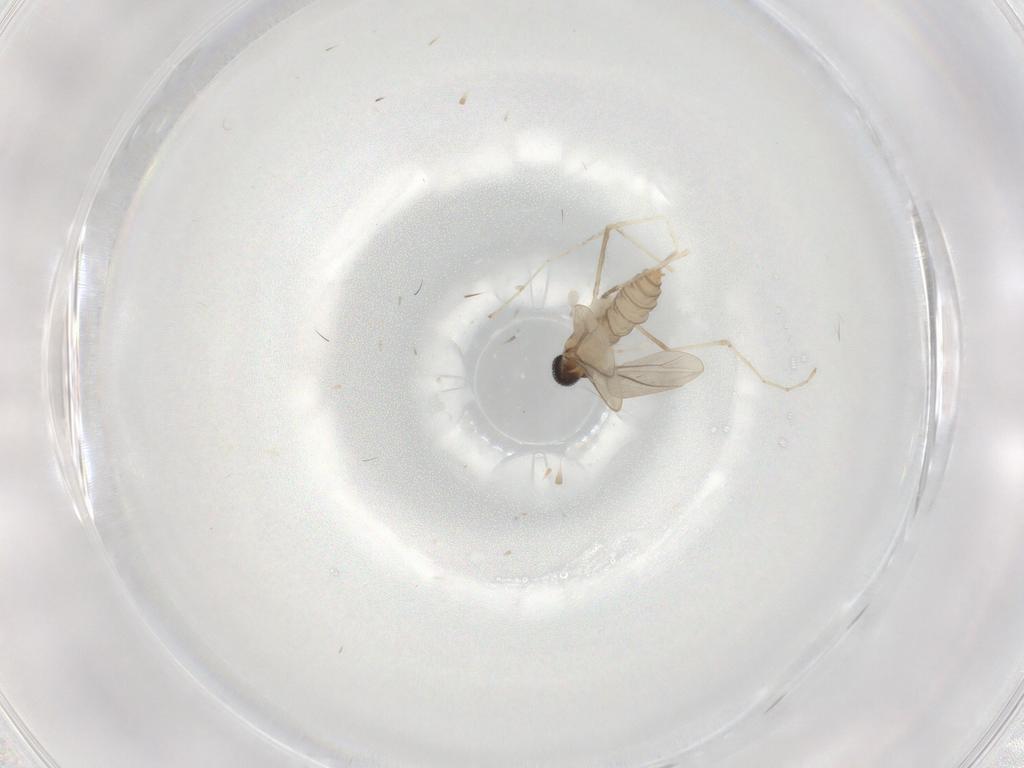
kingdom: Animalia
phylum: Arthropoda
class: Insecta
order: Diptera
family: Cecidomyiidae
